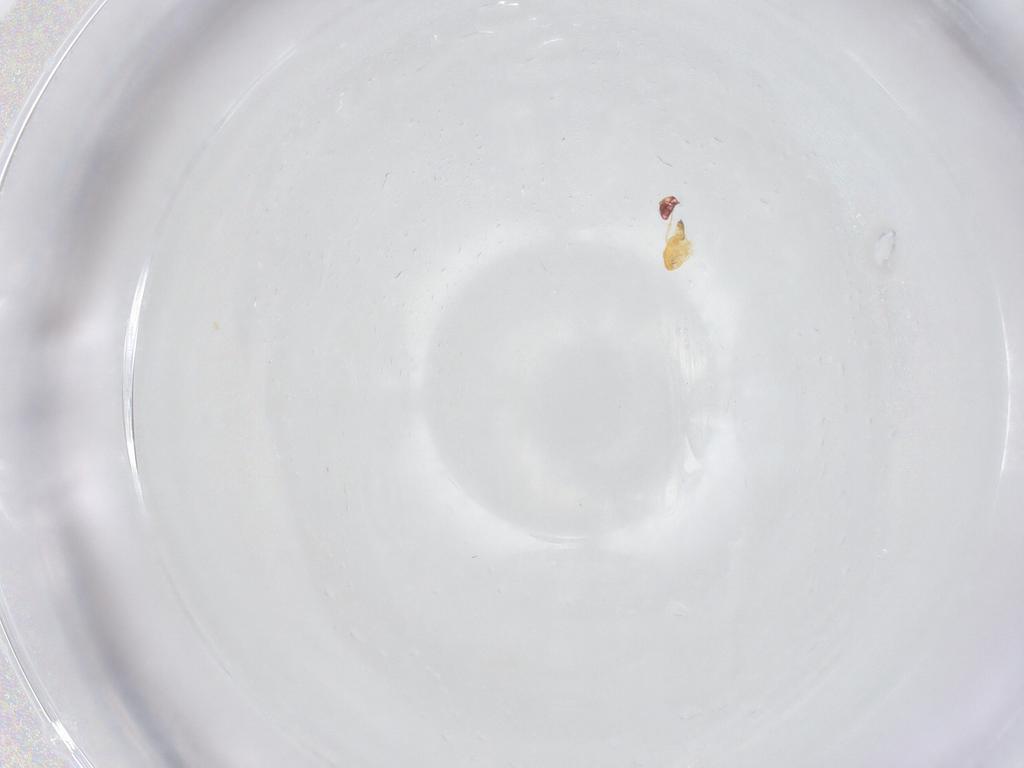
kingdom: Animalia
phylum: Arthropoda
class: Insecta
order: Hymenoptera
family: Trichogrammatidae
